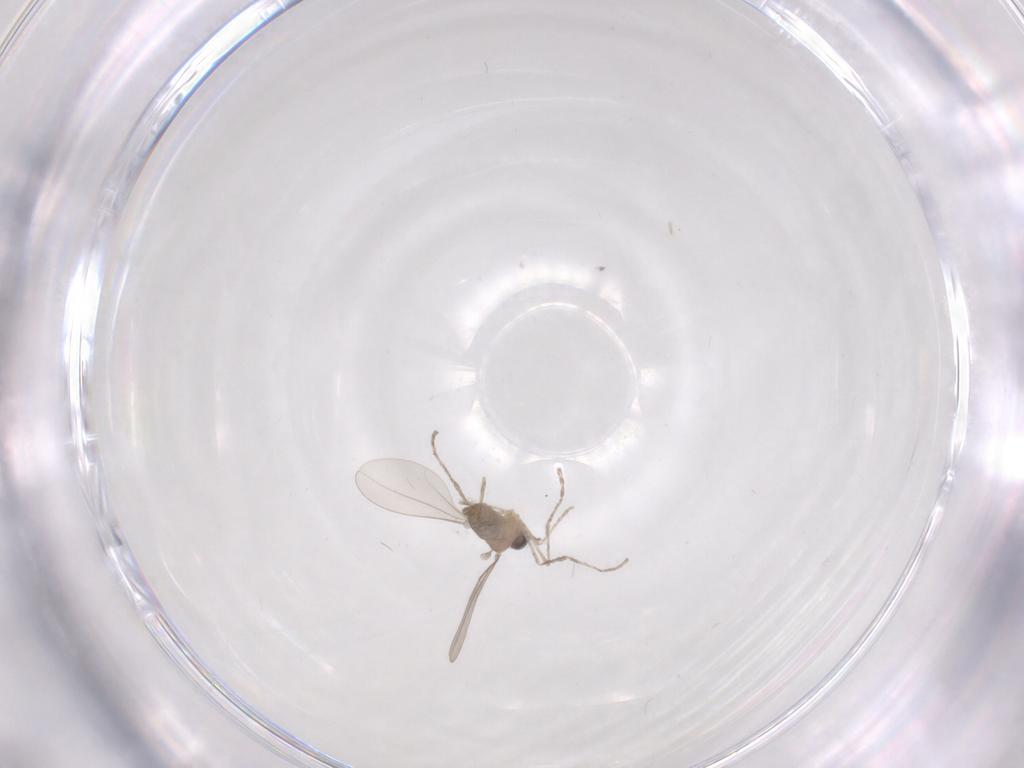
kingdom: Animalia
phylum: Arthropoda
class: Insecta
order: Diptera
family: Cecidomyiidae
